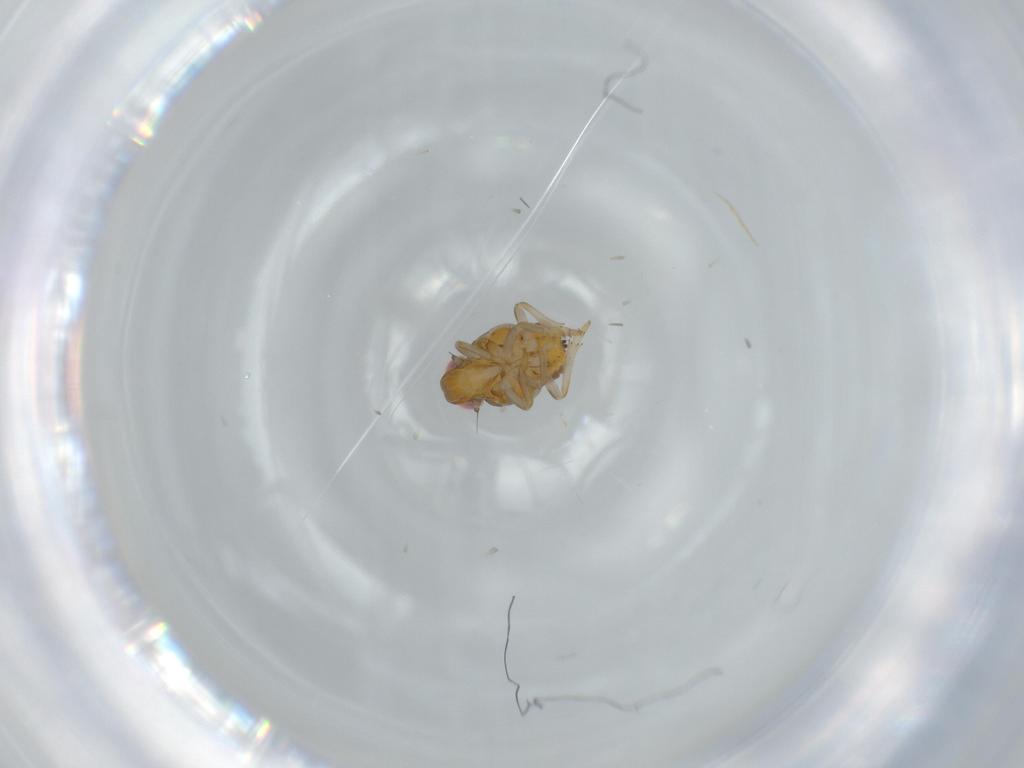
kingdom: Animalia
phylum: Arthropoda
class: Insecta
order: Hemiptera
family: Issidae
